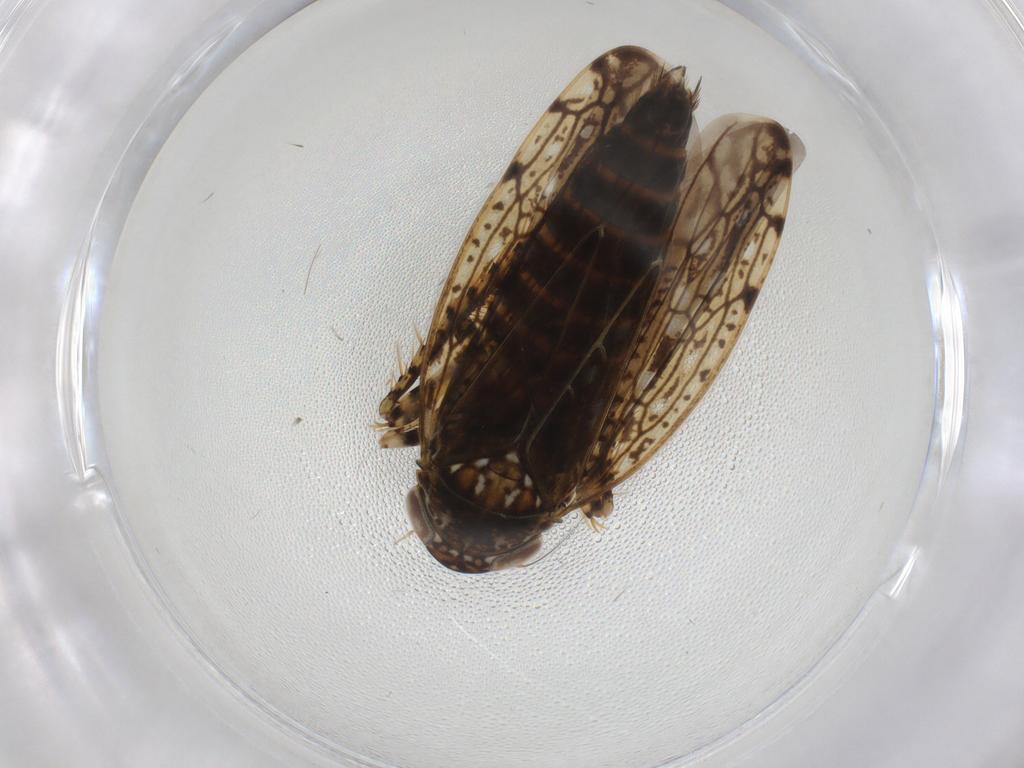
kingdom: Animalia
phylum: Arthropoda
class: Insecta
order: Hemiptera
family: Cicadellidae
